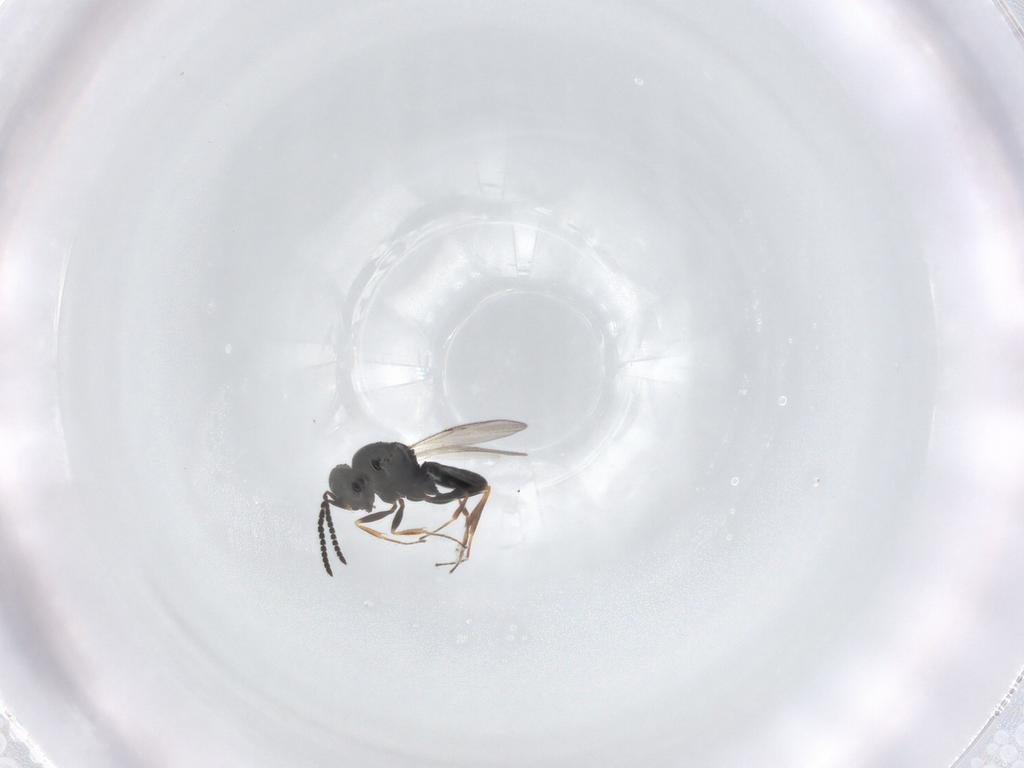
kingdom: Animalia
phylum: Arthropoda
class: Insecta
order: Hymenoptera
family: Scelionidae
